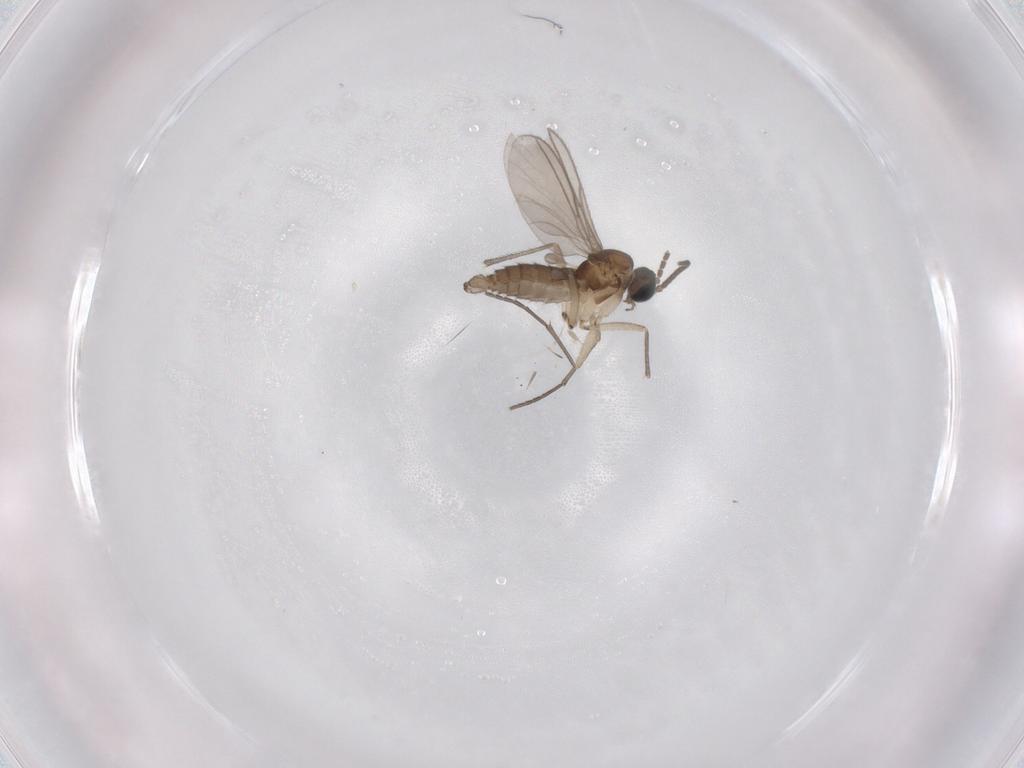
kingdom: Animalia
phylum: Arthropoda
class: Insecta
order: Diptera
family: Sciaridae
